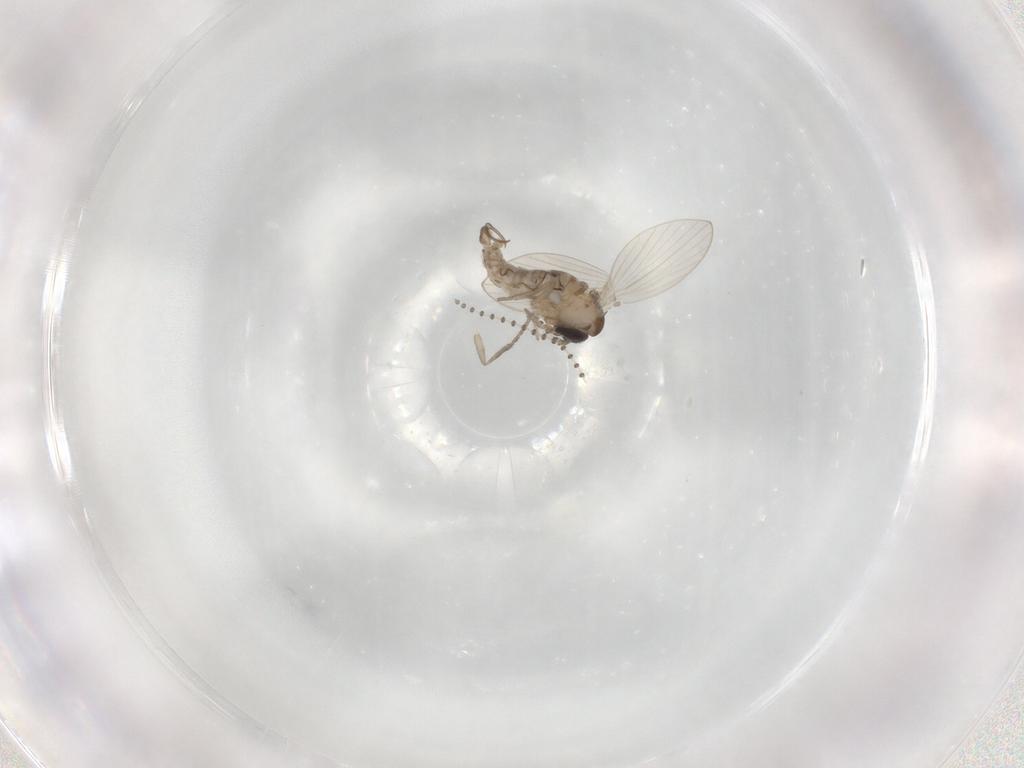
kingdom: Animalia
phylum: Arthropoda
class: Insecta
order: Diptera
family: Psychodidae
